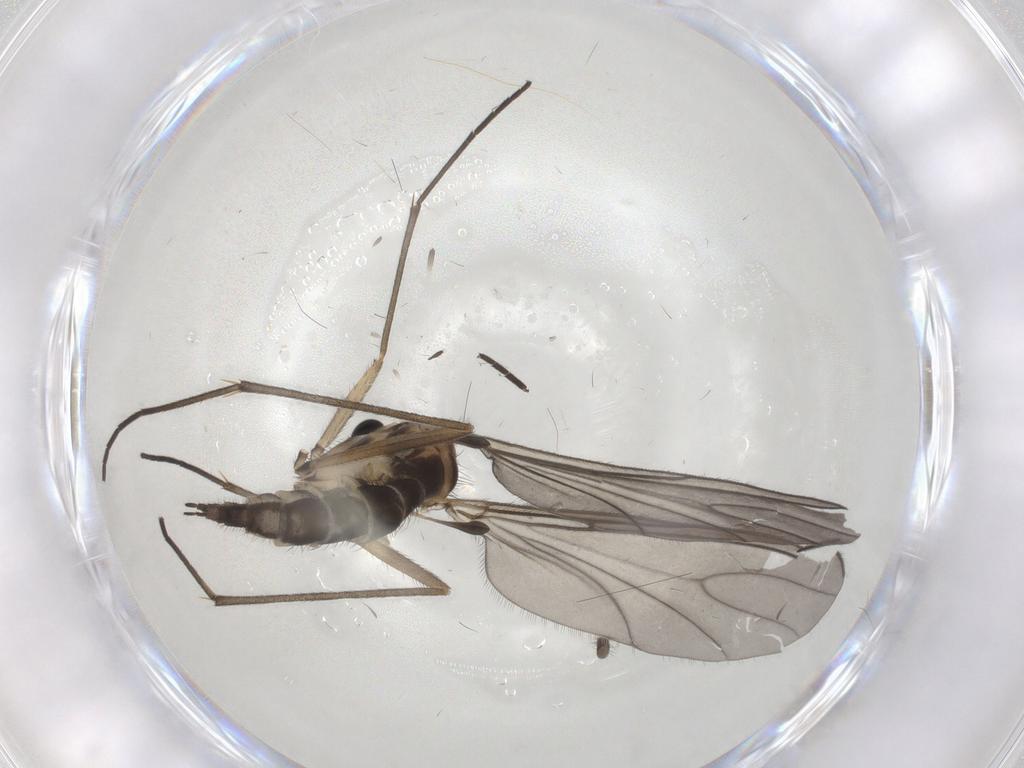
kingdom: Animalia
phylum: Arthropoda
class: Insecta
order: Diptera
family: Sciaridae
